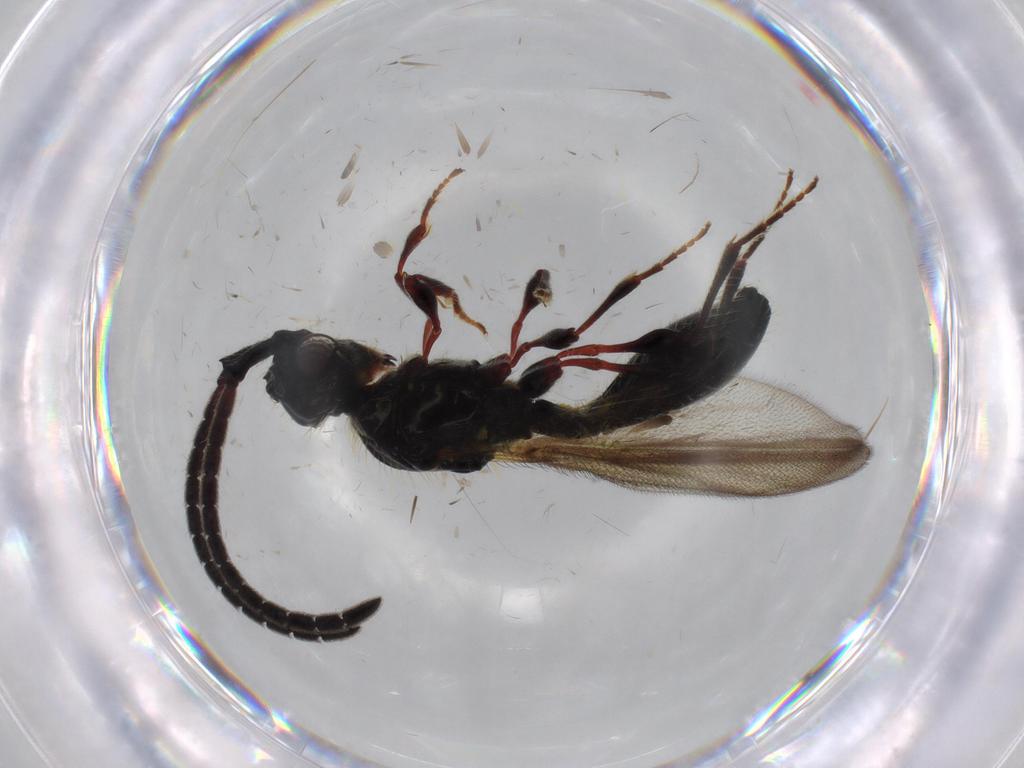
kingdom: Animalia
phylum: Arthropoda
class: Insecta
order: Hymenoptera
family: Diapriidae
